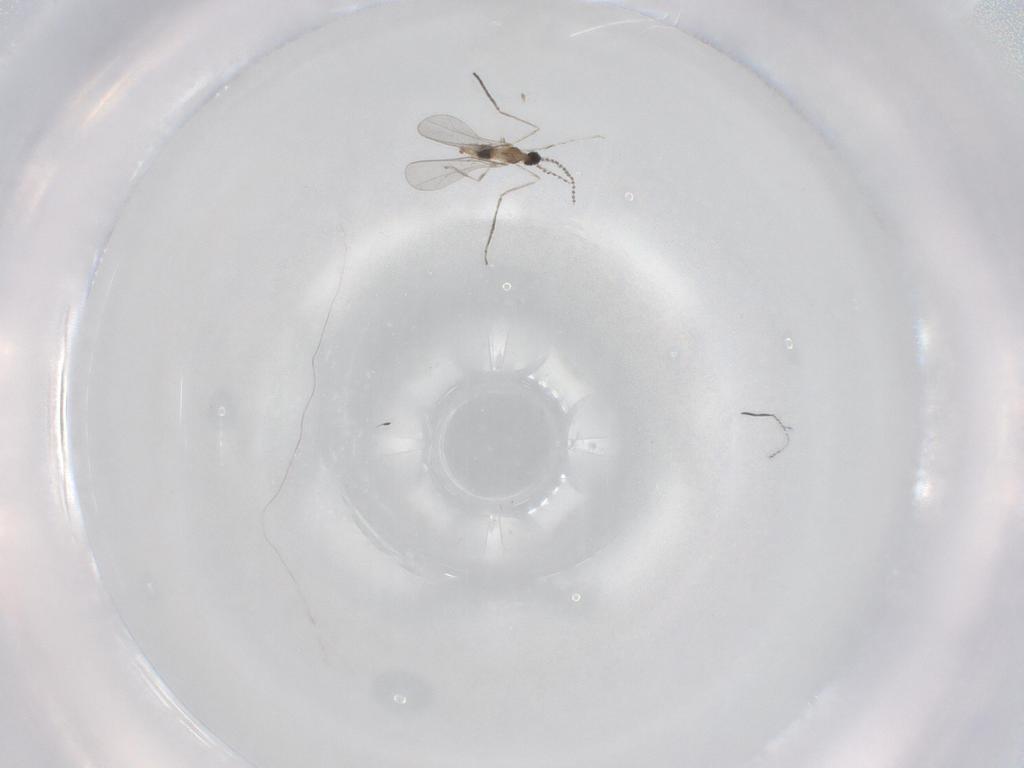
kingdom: Animalia
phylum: Arthropoda
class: Insecta
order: Diptera
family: Cecidomyiidae
